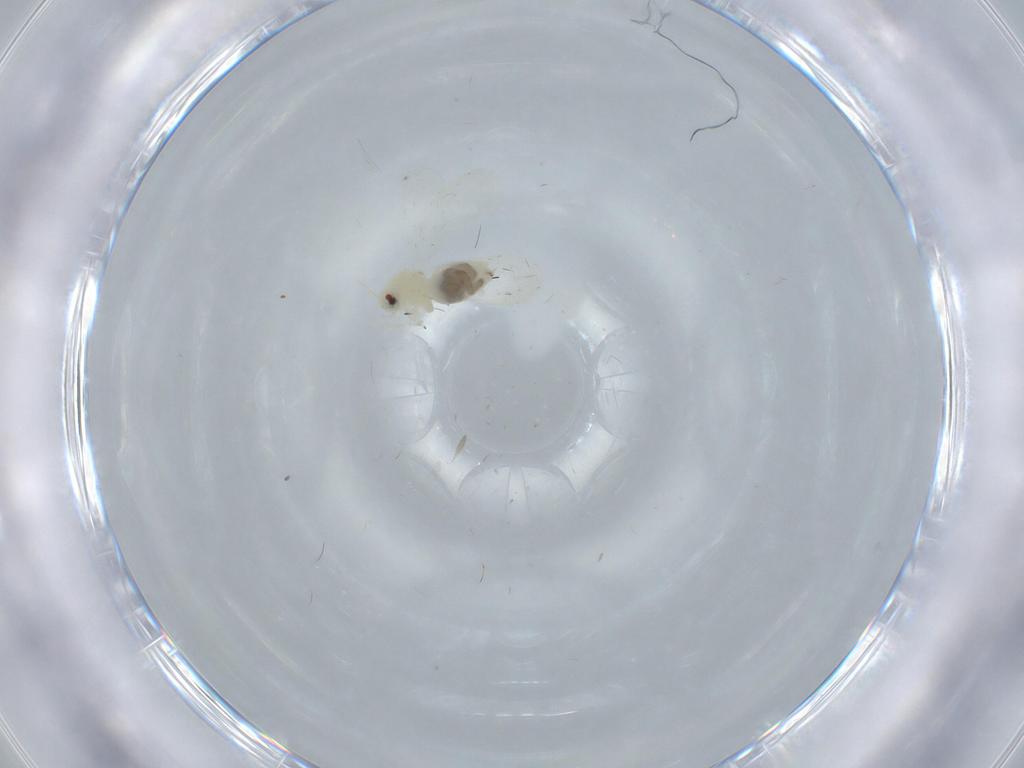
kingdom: Animalia
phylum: Arthropoda
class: Insecta
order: Hemiptera
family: Aleyrodidae
